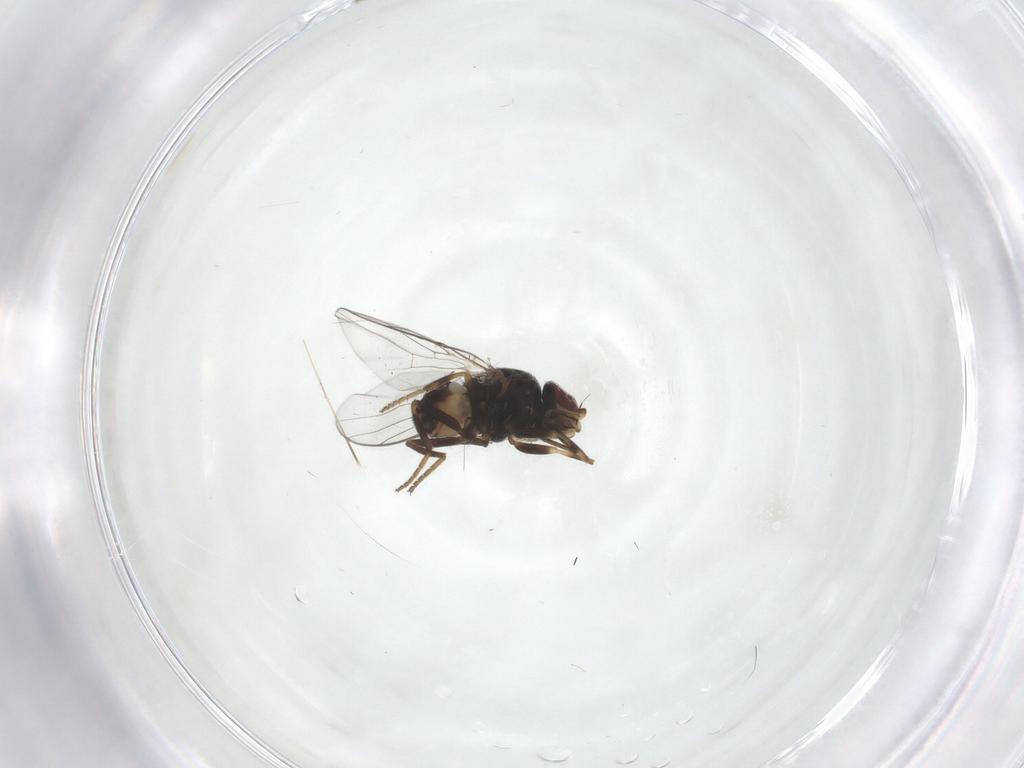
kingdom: Animalia
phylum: Arthropoda
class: Insecta
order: Diptera
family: Chloropidae
